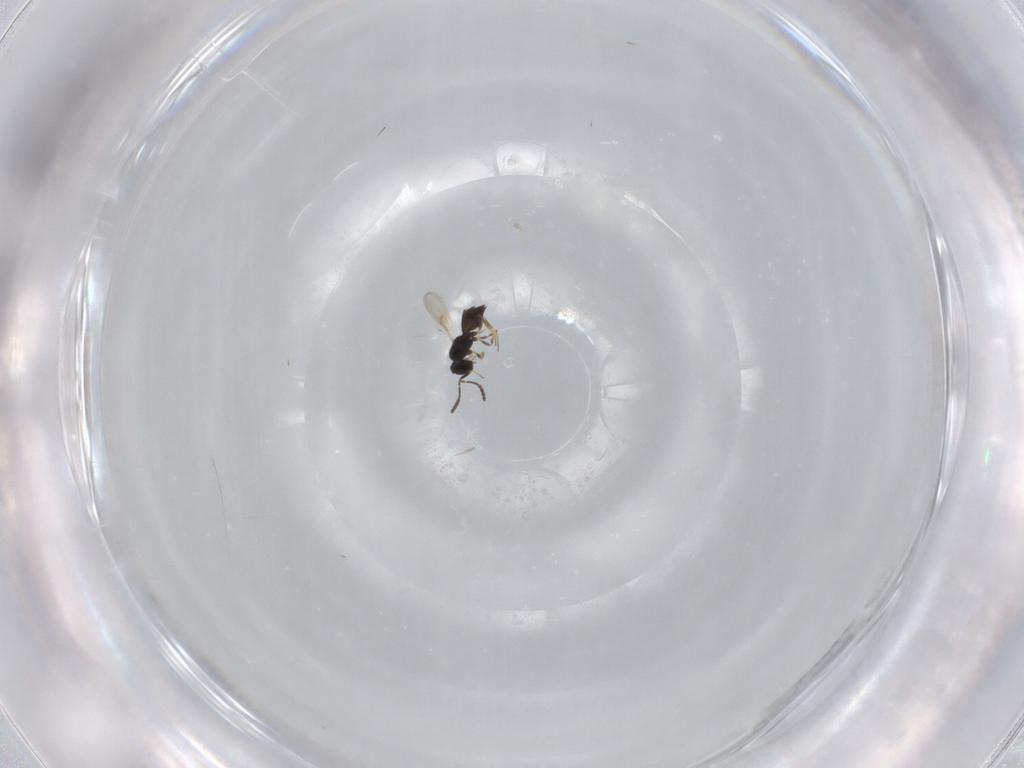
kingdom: Animalia
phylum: Arthropoda
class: Insecta
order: Hymenoptera
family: Scelionidae
